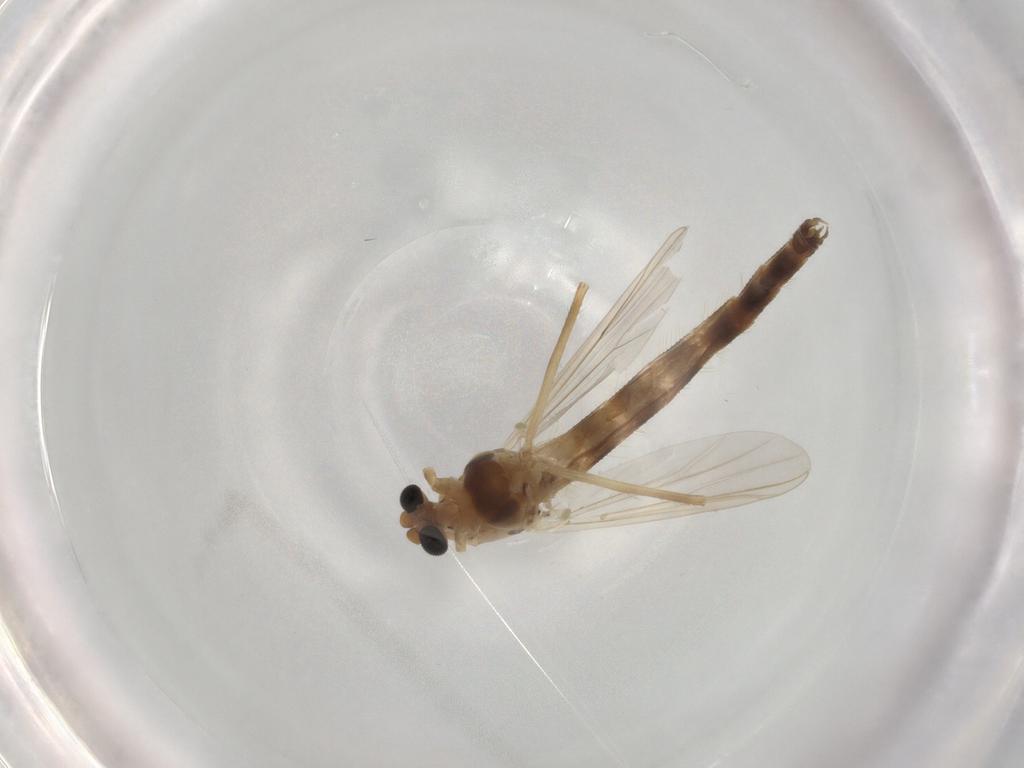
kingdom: Animalia
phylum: Arthropoda
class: Insecta
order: Diptera
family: Chironomidae
